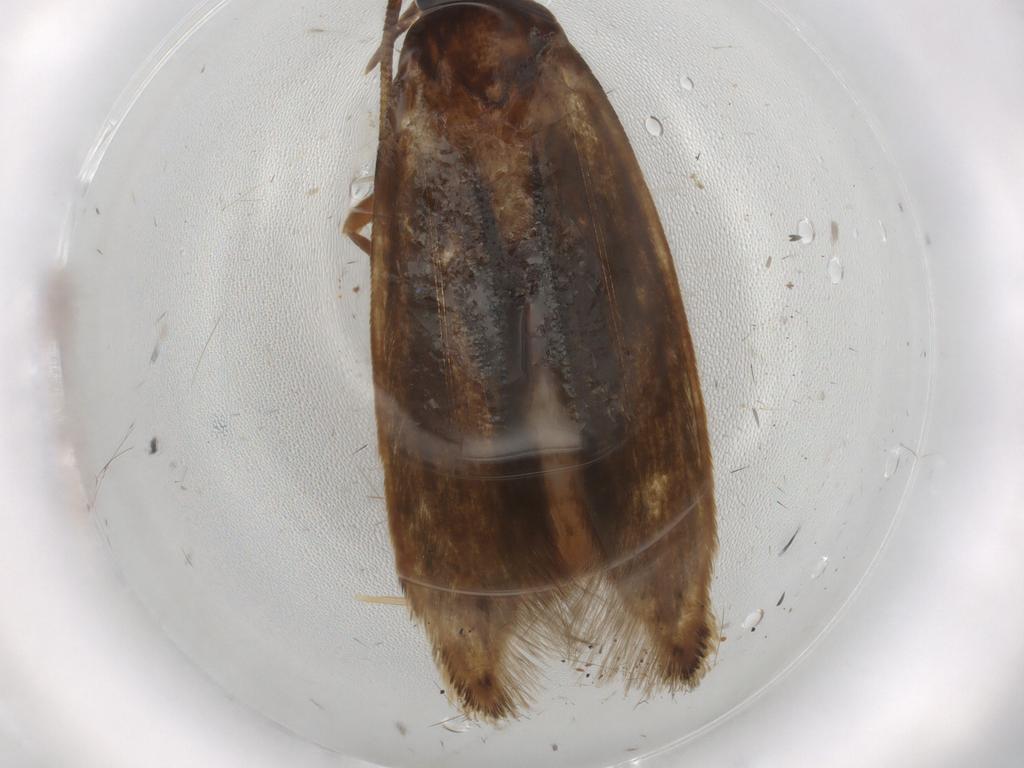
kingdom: Animalia
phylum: Arthropoda
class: Insecta
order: Lepidoptera
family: Tineidae
